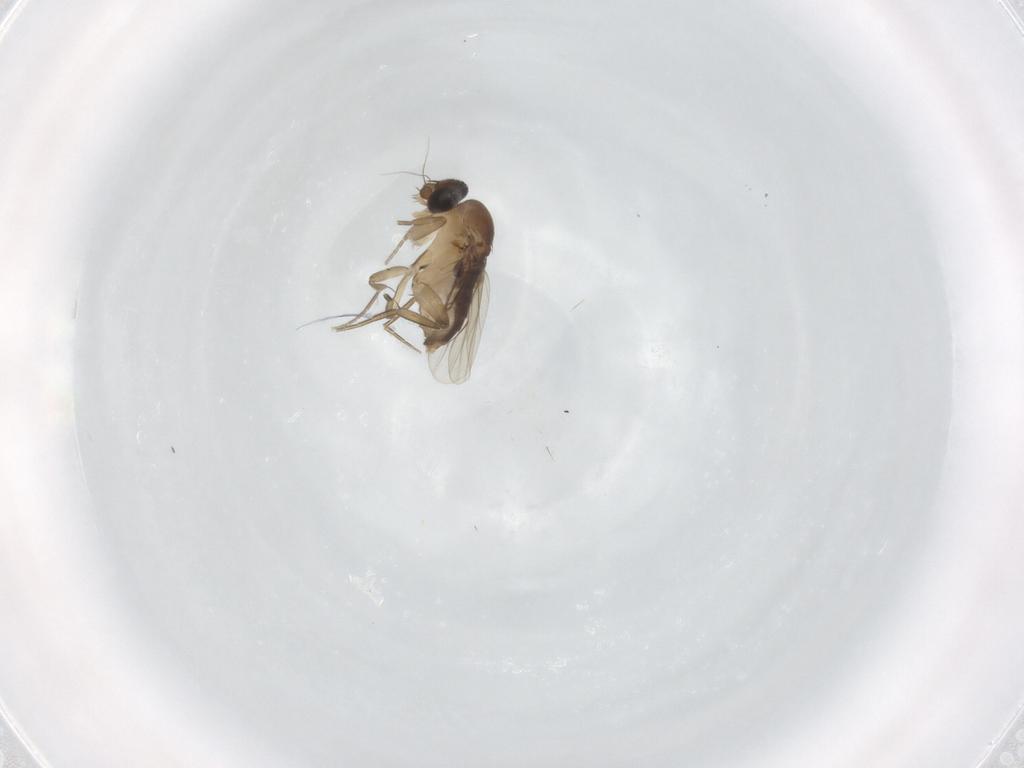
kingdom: Animalia
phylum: Arthropoda
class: Insecta
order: Diptera
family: Phoridae
